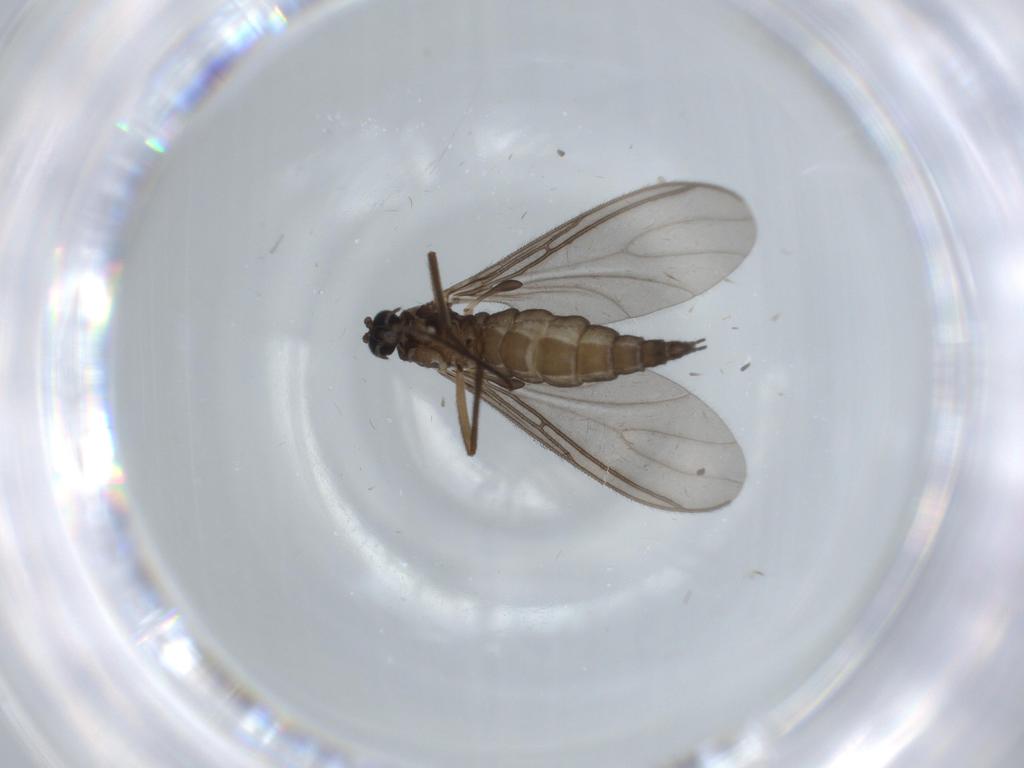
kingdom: Animalia
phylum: Arthropoda
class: Insecta
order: Diptera
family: Sciaridae
